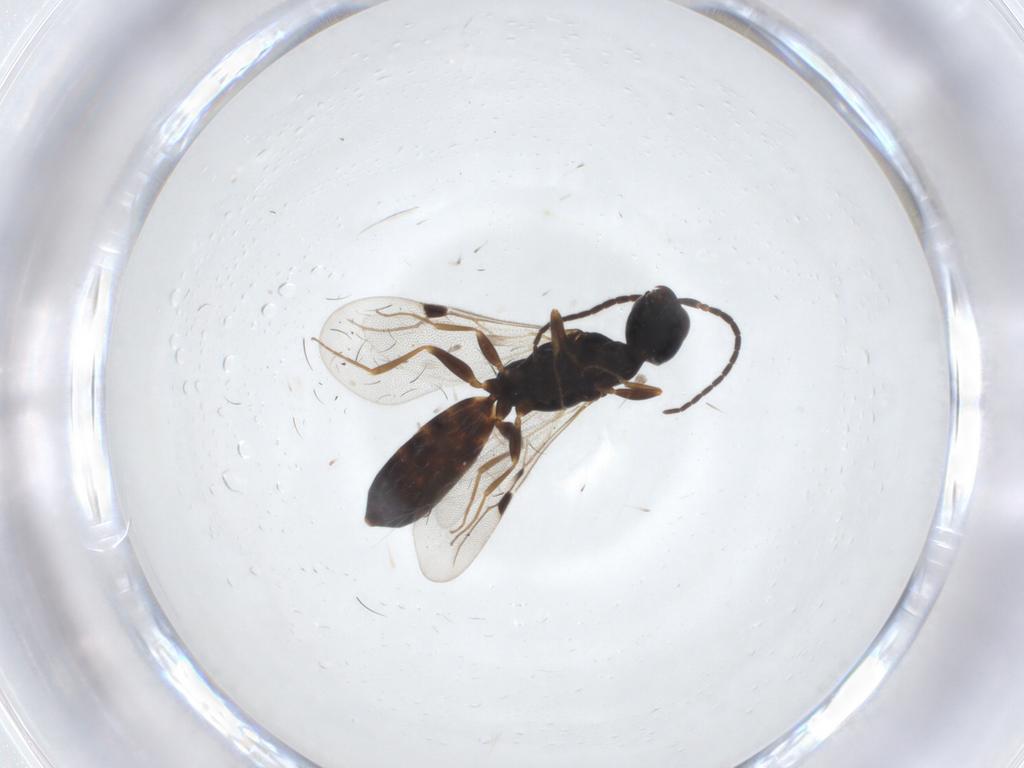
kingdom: Animalia
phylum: Arthropoda
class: Insecta
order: Hymenoptera
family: Bethylidae
